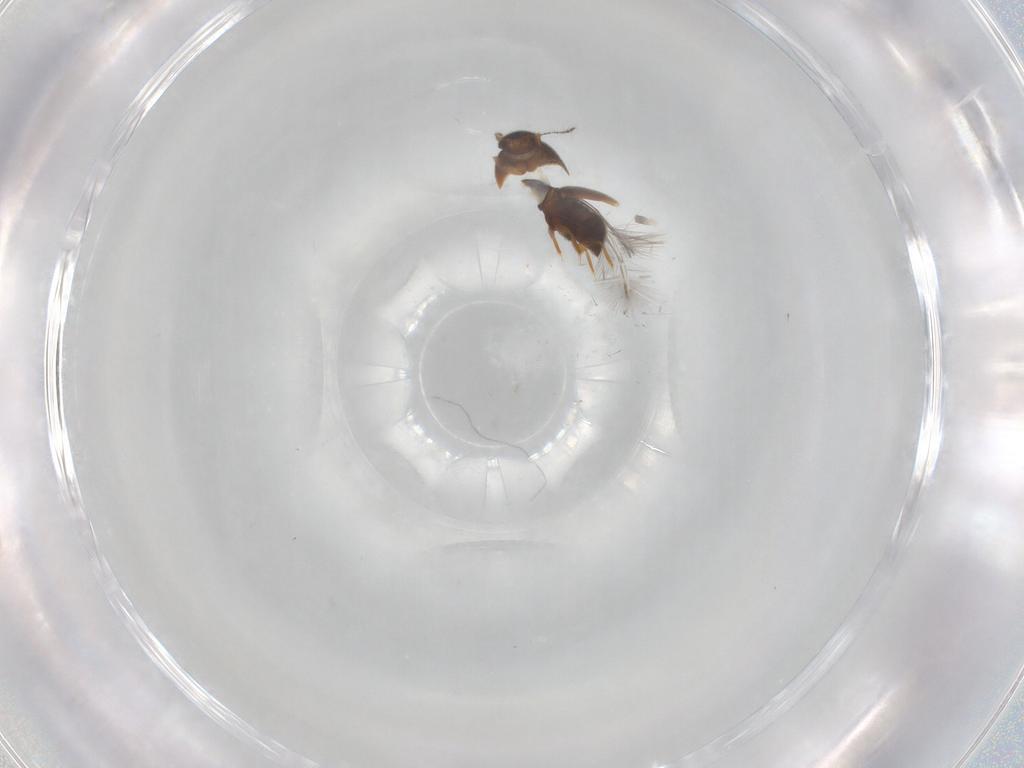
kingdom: Animalia
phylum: Arthropoda
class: Insecta
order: Coleoptera
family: Ptiliidae
